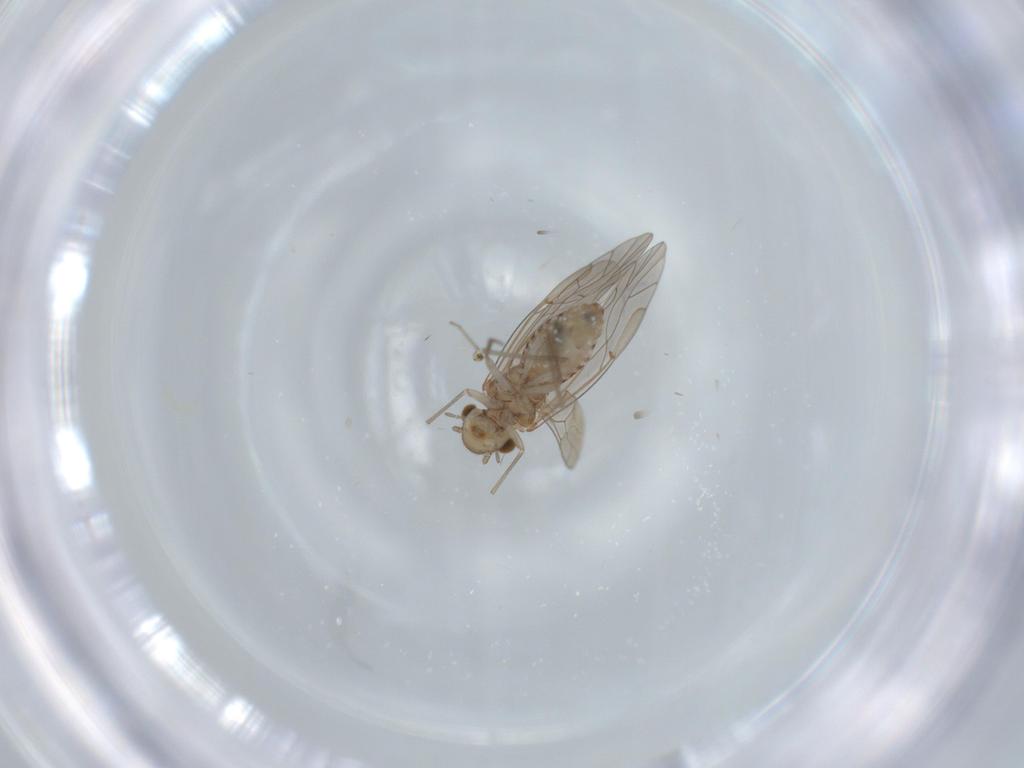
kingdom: Animalia
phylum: Arthropoda
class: Insecta
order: Psocodea
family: Lachesillidae
